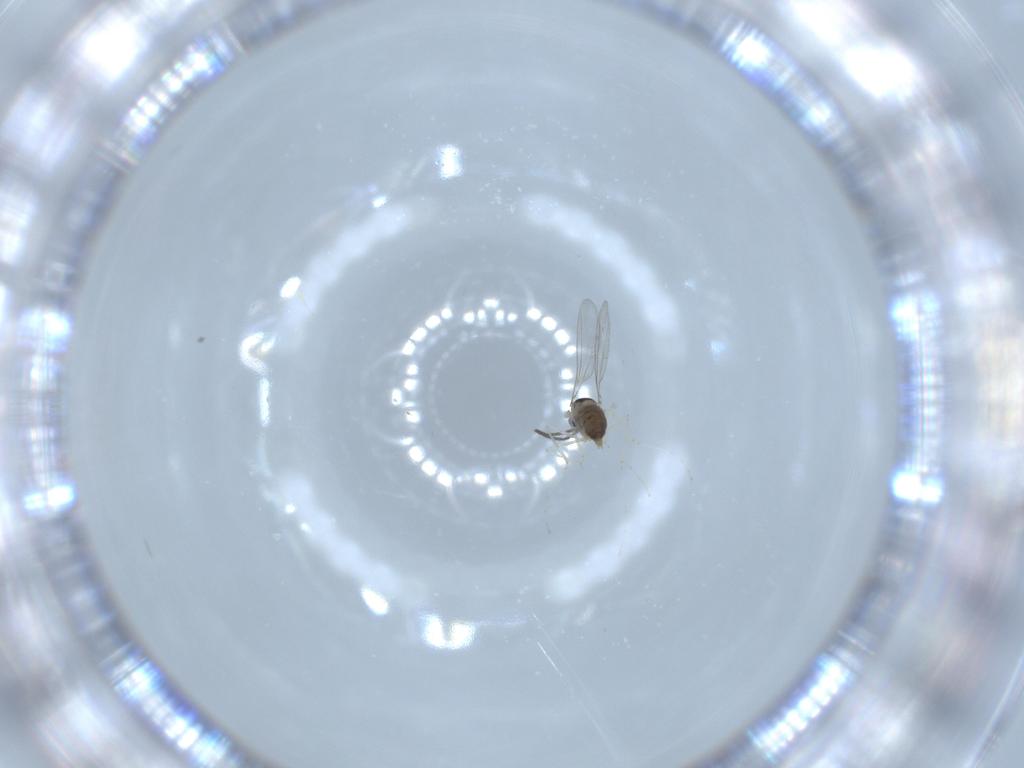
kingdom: Animalia
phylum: Arthropoda
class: Insecta
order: Diptera
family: Cecidomyiidae
